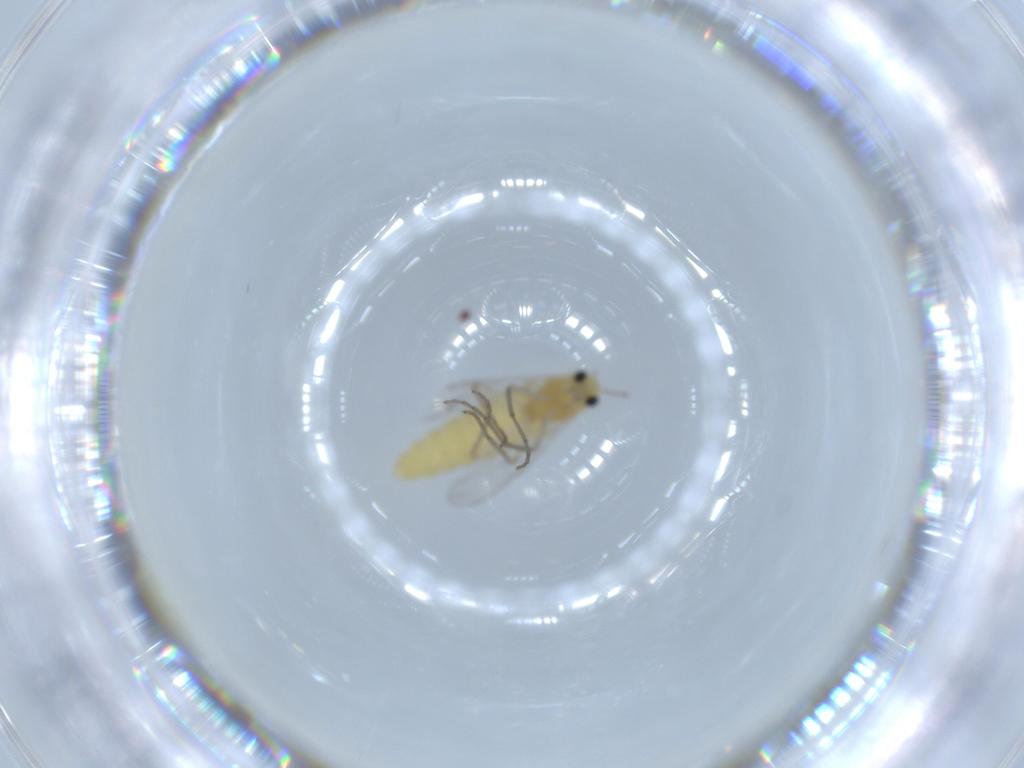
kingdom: Animalia
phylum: Arthropoda
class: Insecta
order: Diptera
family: Chironomidae
